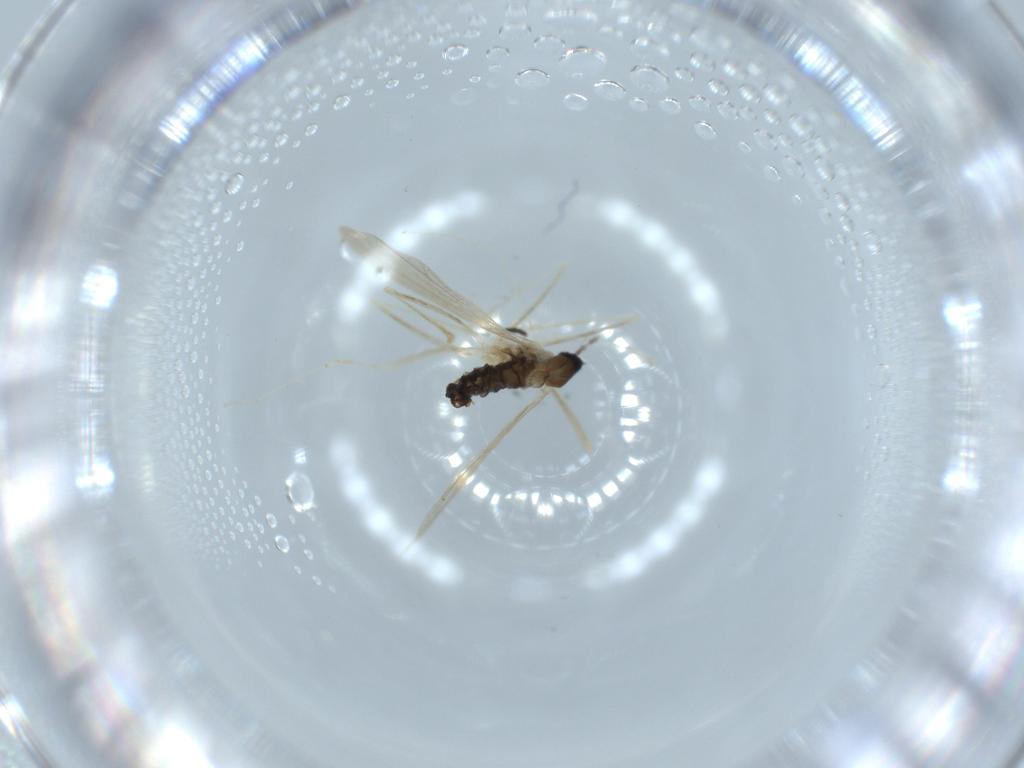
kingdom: Animalia
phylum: Arthropoda
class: Insecta
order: Diptera
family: Cecidomyiidae
